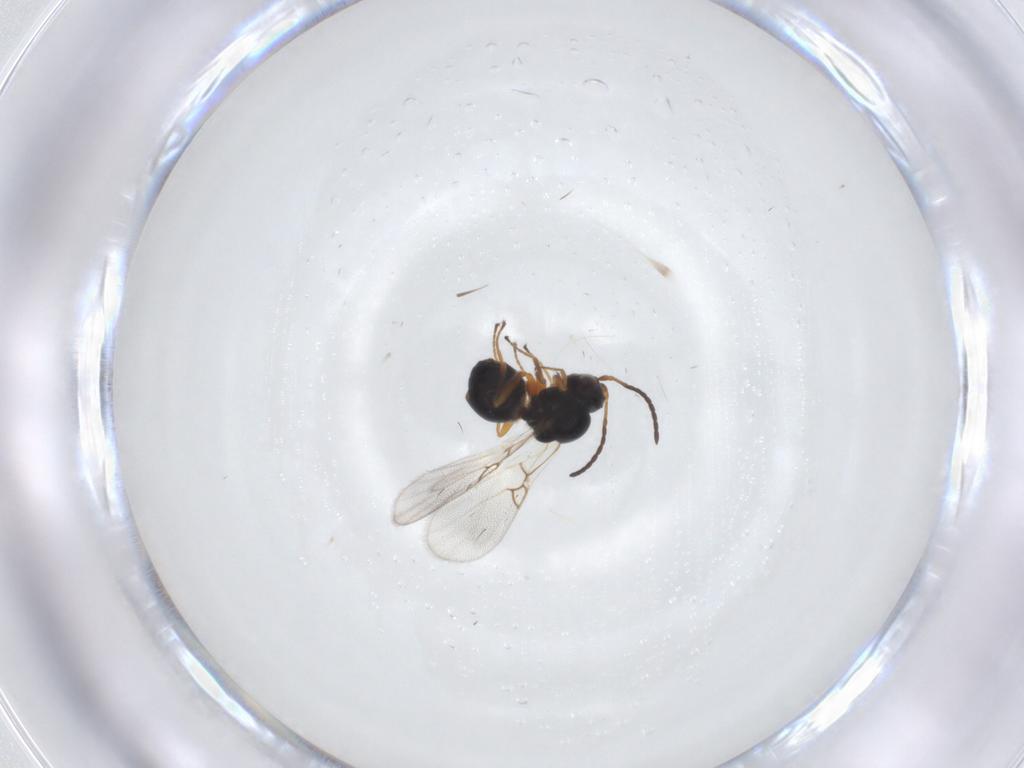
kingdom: Animalia
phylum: Arthropoda
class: Insecta
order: Hymenoptera
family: Figitidae
